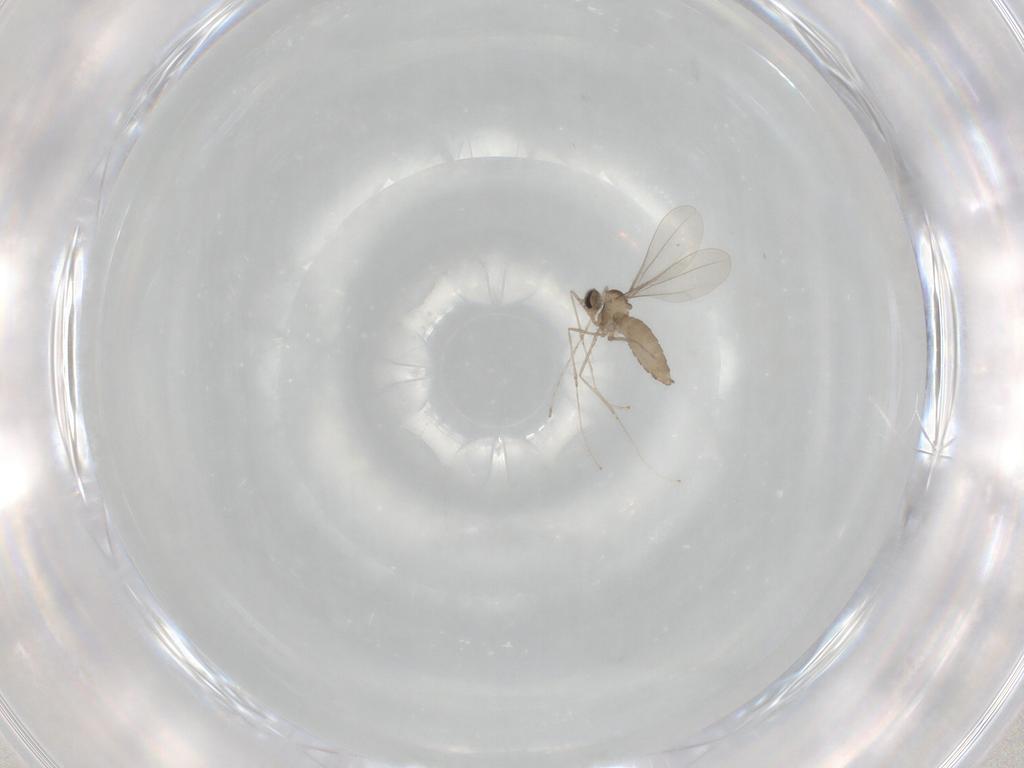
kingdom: Animalia
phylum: Arthropoda
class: Insecta
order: Diptera
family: Cecidomyiidae
